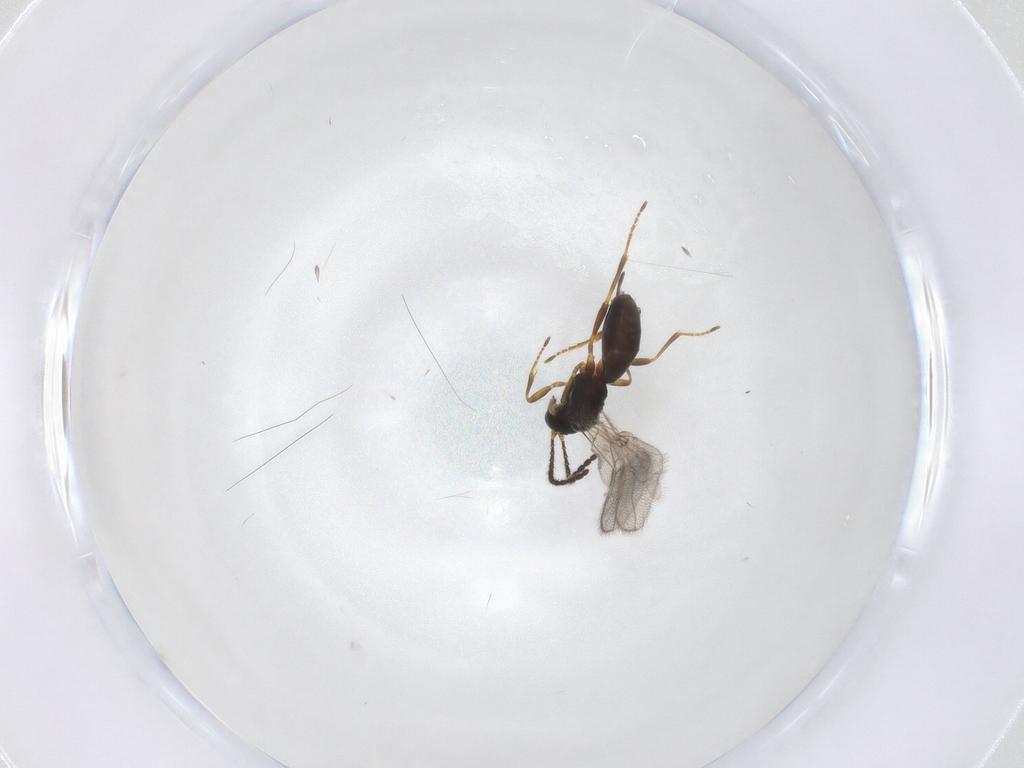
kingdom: Animalia
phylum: Arthropoda
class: Insecta
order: Hymenoptera
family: Braconidae
